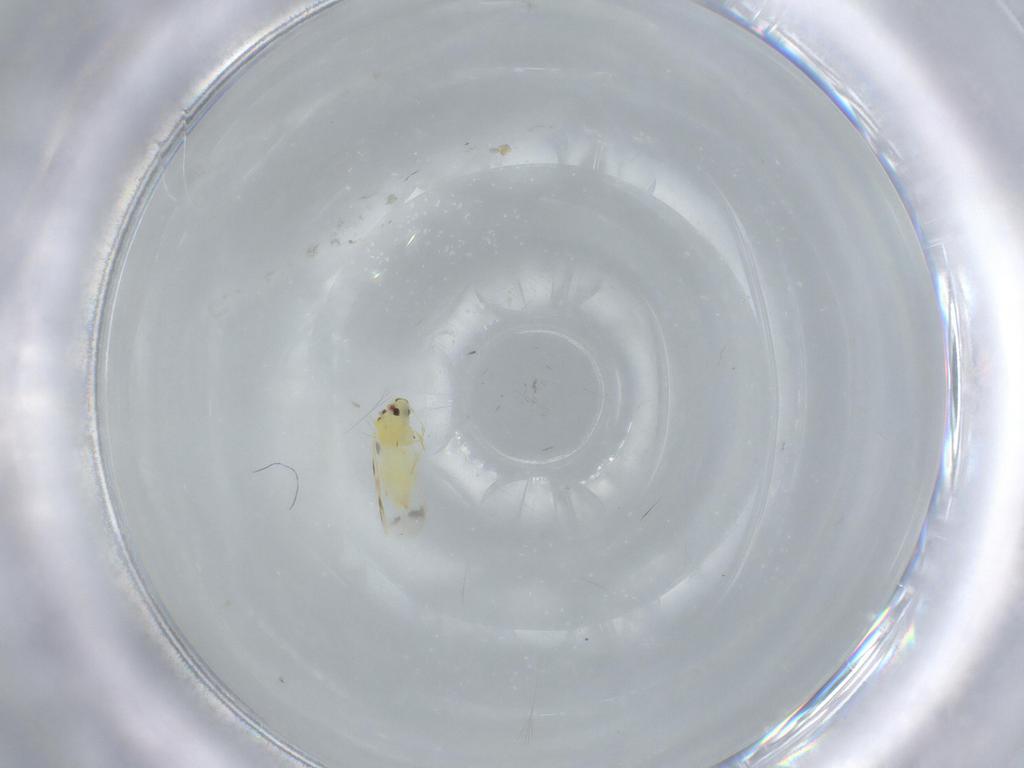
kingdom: Animalia
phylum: Arthropoda
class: Insecta
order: Hemiptera
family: Aleyrodidae
